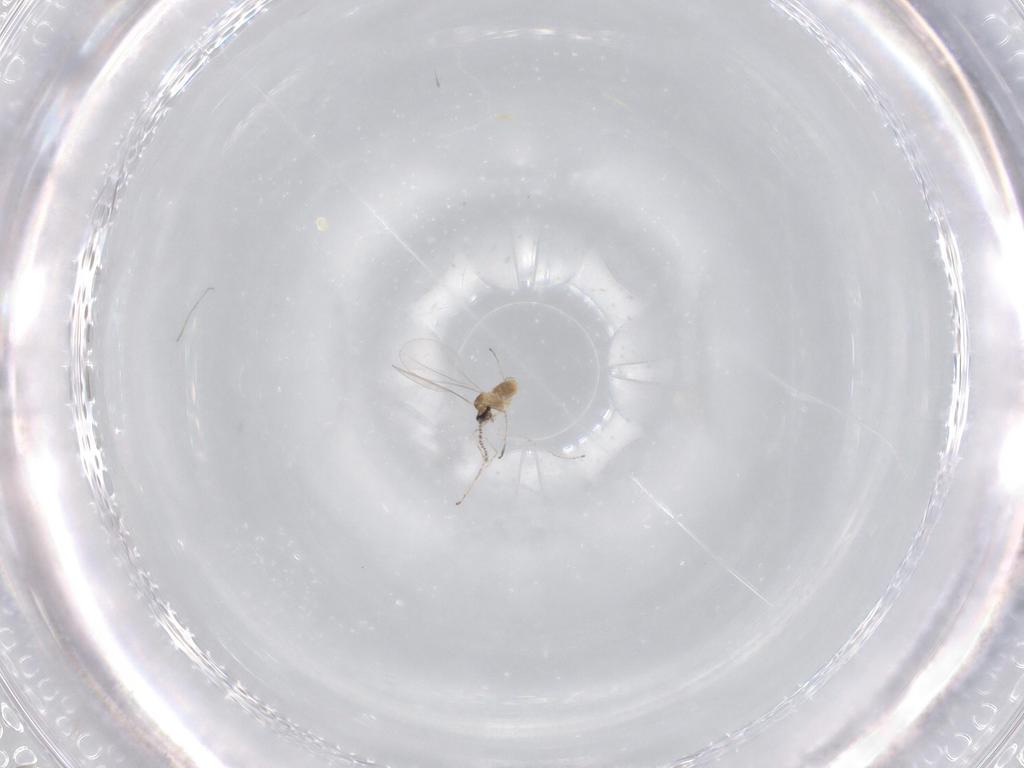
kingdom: Animalia
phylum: Arthropoda
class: Insecta
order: Diptera
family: Cecidomyiidae
